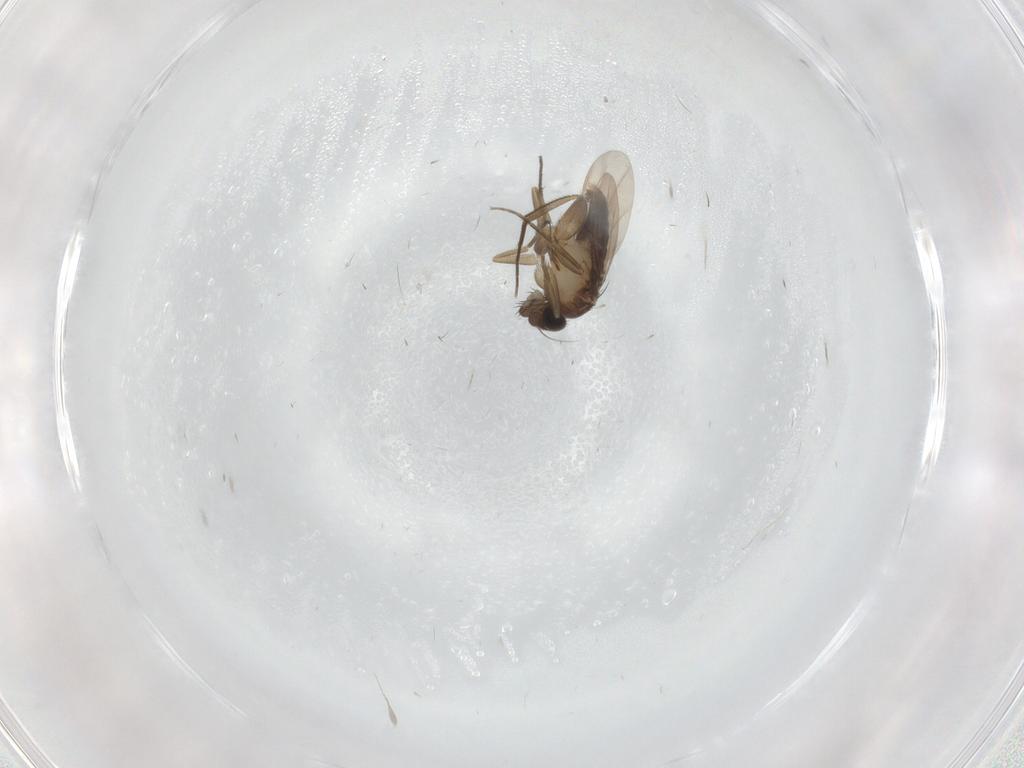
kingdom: Animalia
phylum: Arthropoda
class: Insecta
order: Diptera
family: Phoridae
